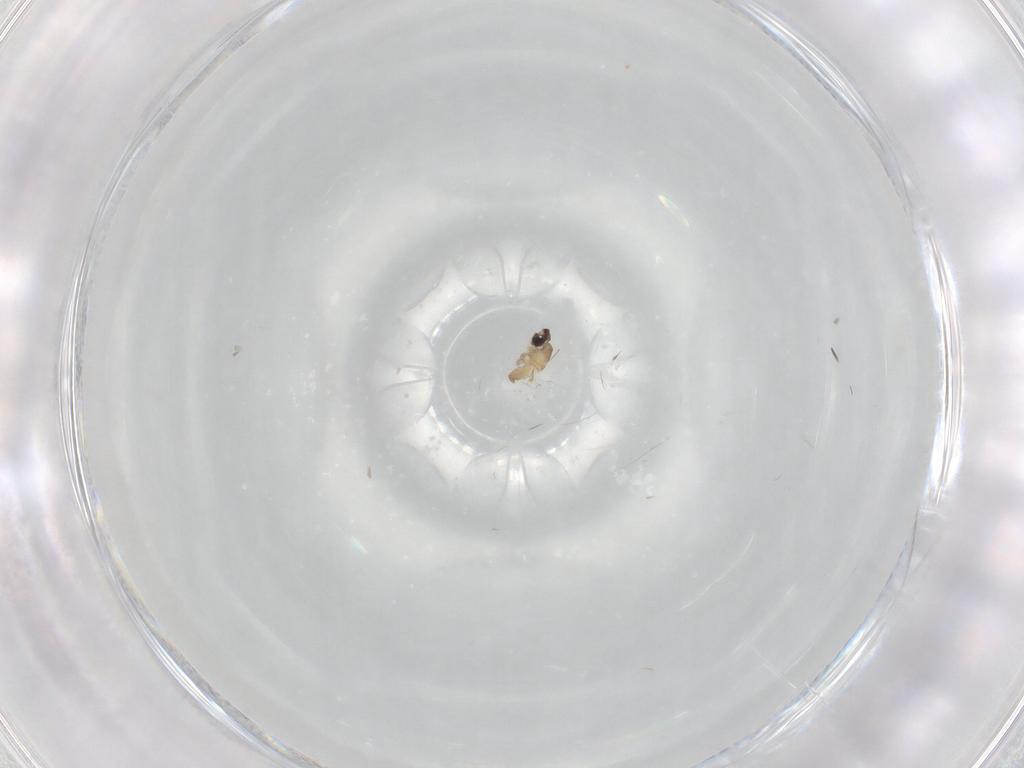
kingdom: Animalia
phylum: Arthropoda
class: Insecta
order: Diptera
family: Cecidomyiidae
